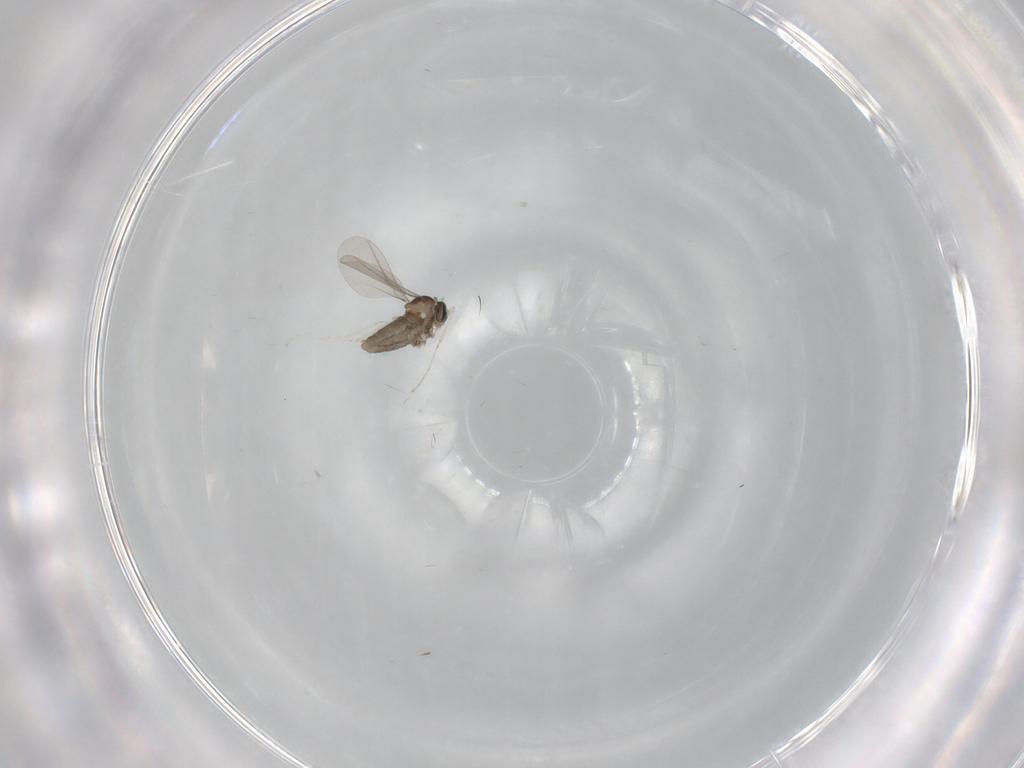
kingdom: Animalia
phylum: Arthropoda
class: Insecta
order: Diptera
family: Cecidomyiidae
